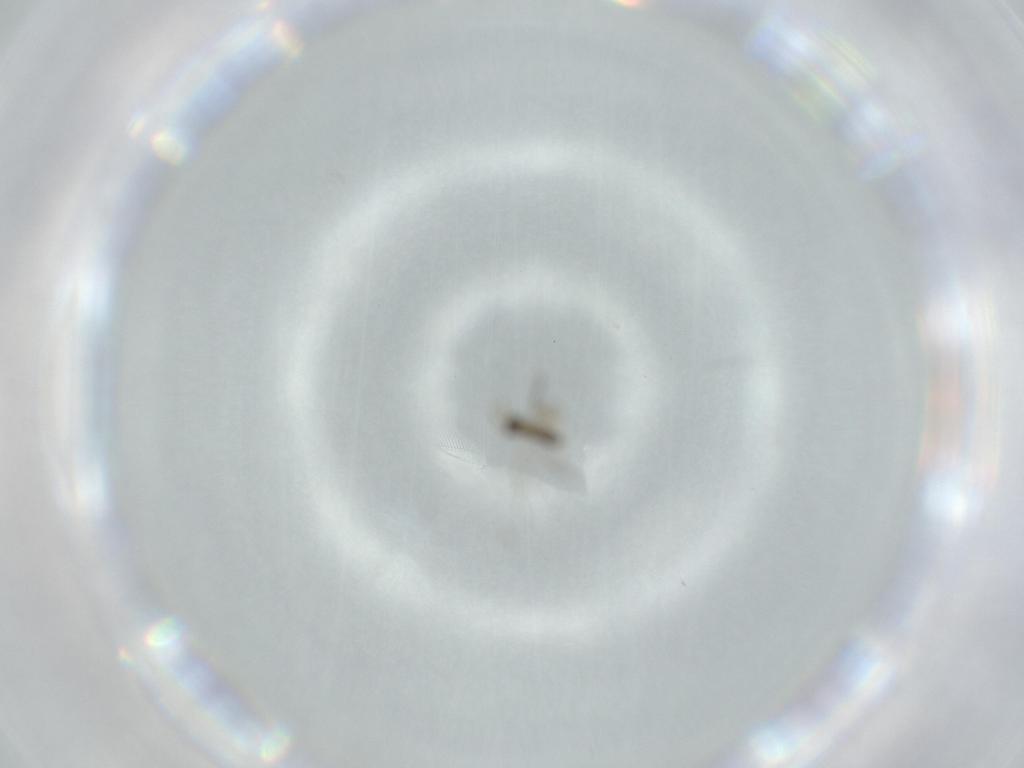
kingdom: Animalia
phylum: Arthropoda
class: Insecta
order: Hymenoptera
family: Aphelinidae
